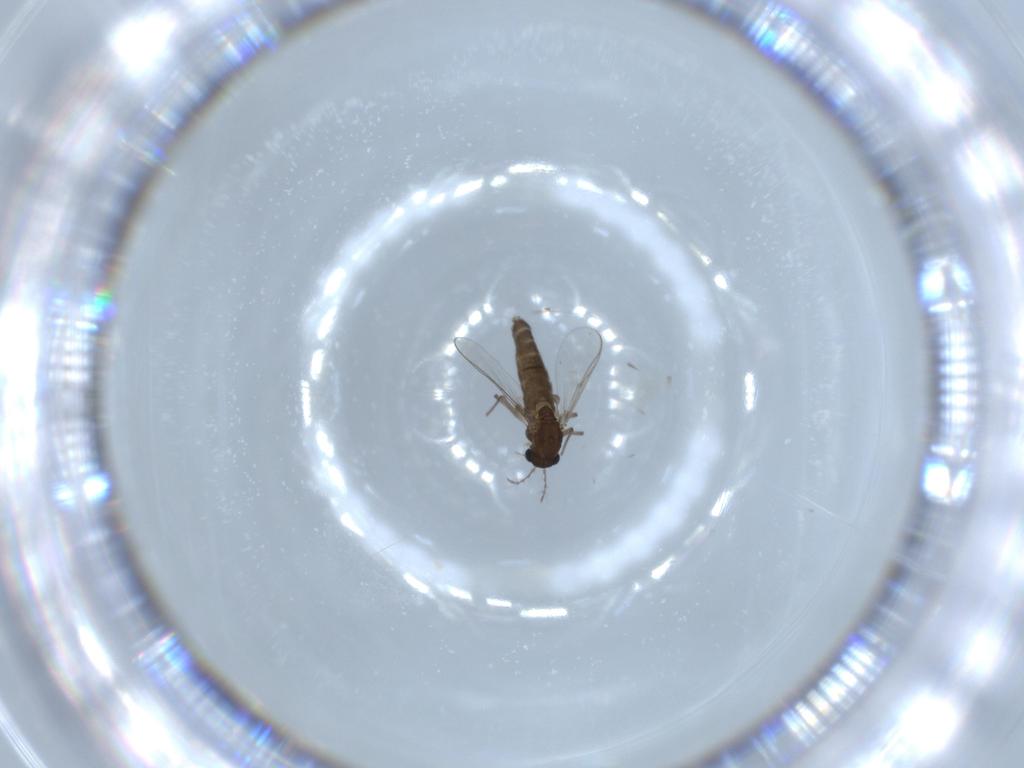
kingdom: Animalia
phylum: Arthropoda
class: Insecta
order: Diptera
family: Chironomidae
